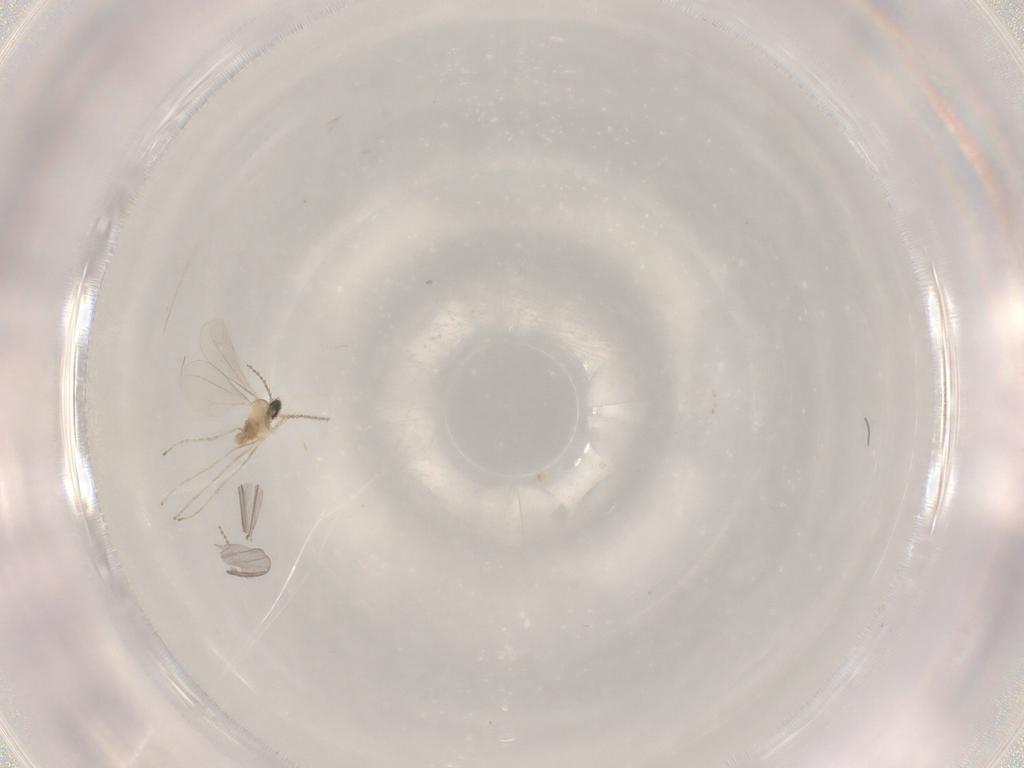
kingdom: Animalia
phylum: Arthropoda
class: Insecta
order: Diptera
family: Chironomidae
